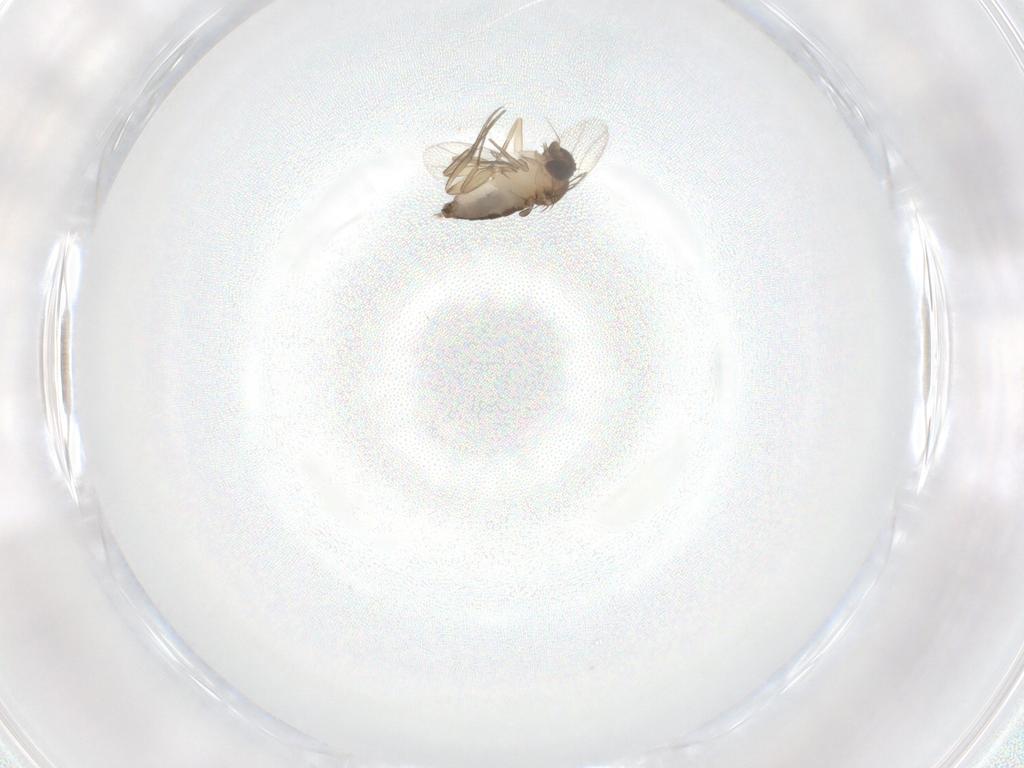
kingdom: Animalia
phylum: Arthropoda
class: Insecta
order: Diptera
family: Phoridae
